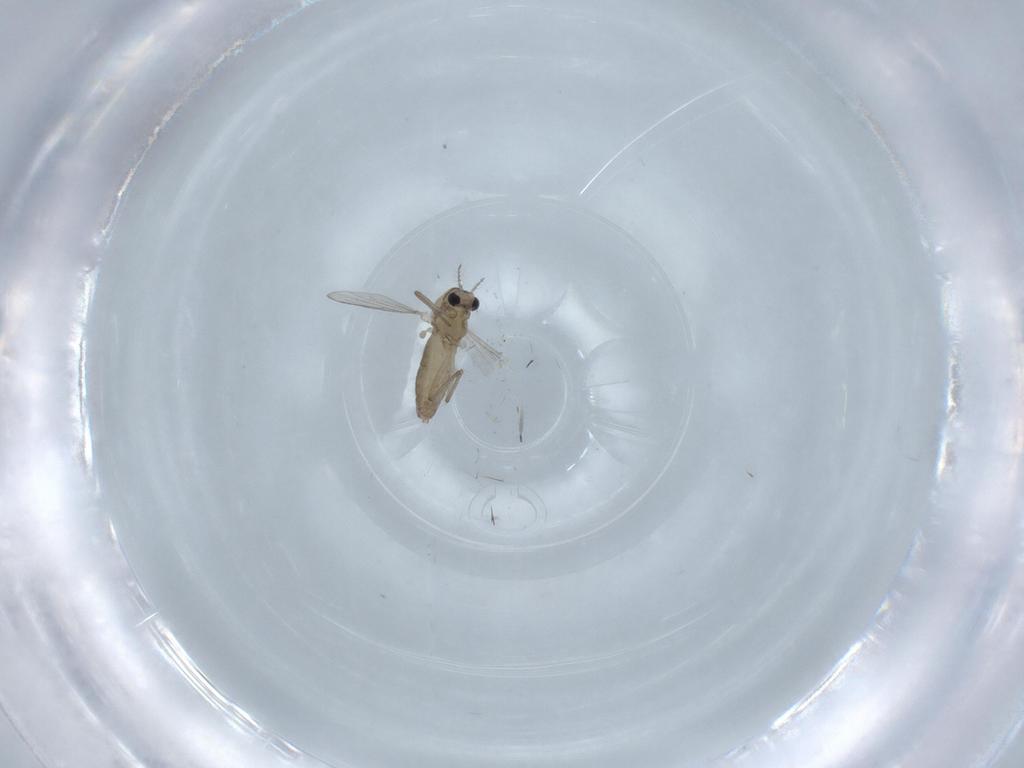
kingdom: Animalia
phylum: Arthropoda
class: Insecta
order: Diptera
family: Chironomidae
